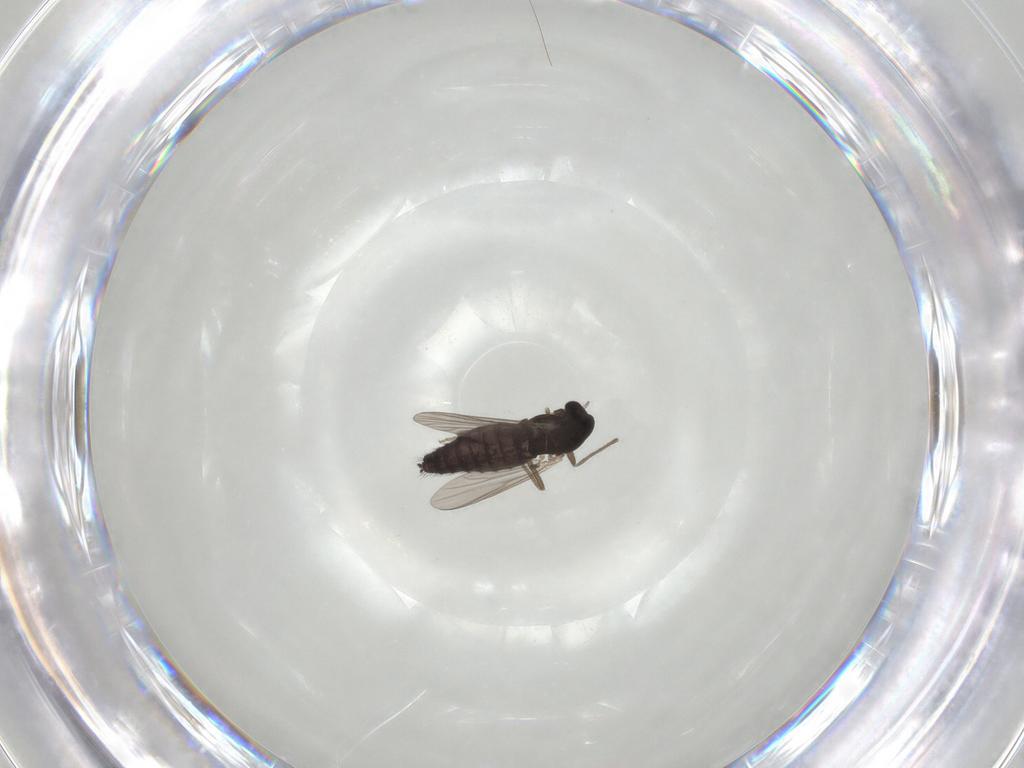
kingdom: Animalia
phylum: Arthropoda
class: Insecta
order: Diptera
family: Chironomidae
